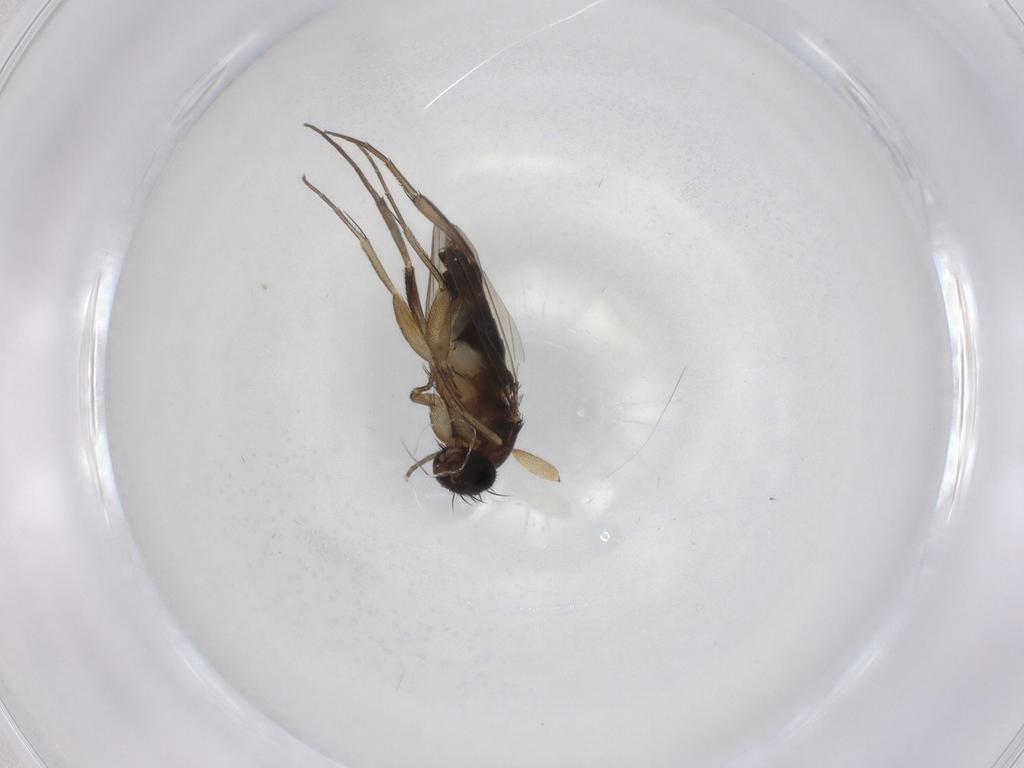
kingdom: Animalia
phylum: Arthropoda
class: Insecta
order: Diptera
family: Phoridae
